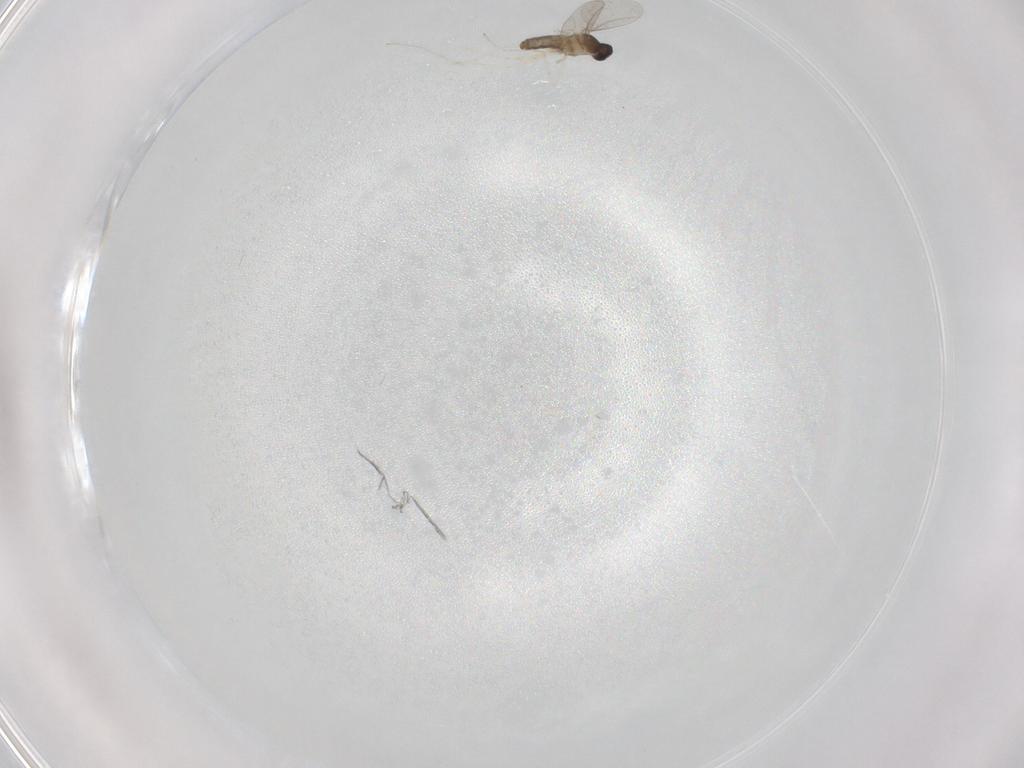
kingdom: Animalia
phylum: Arthropoda
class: Insecta
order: Diptera
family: Cecidomyiidae
